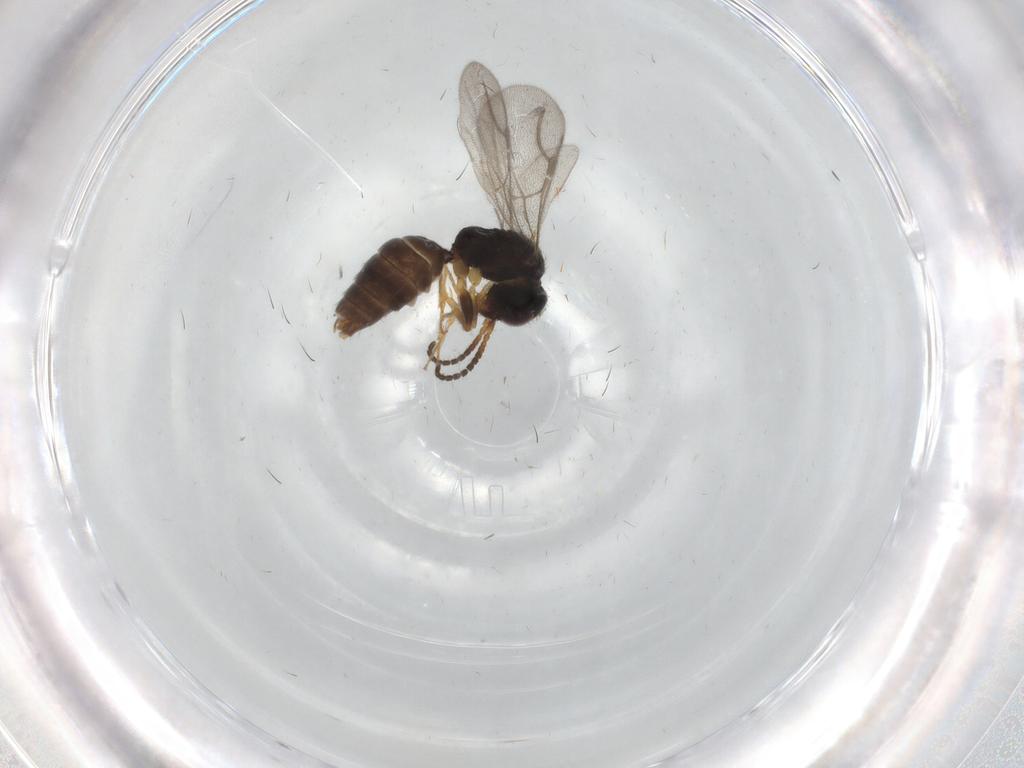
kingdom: Animalia
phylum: Arthropoda
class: Insecta
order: Hymenoptera
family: Bethylidae
